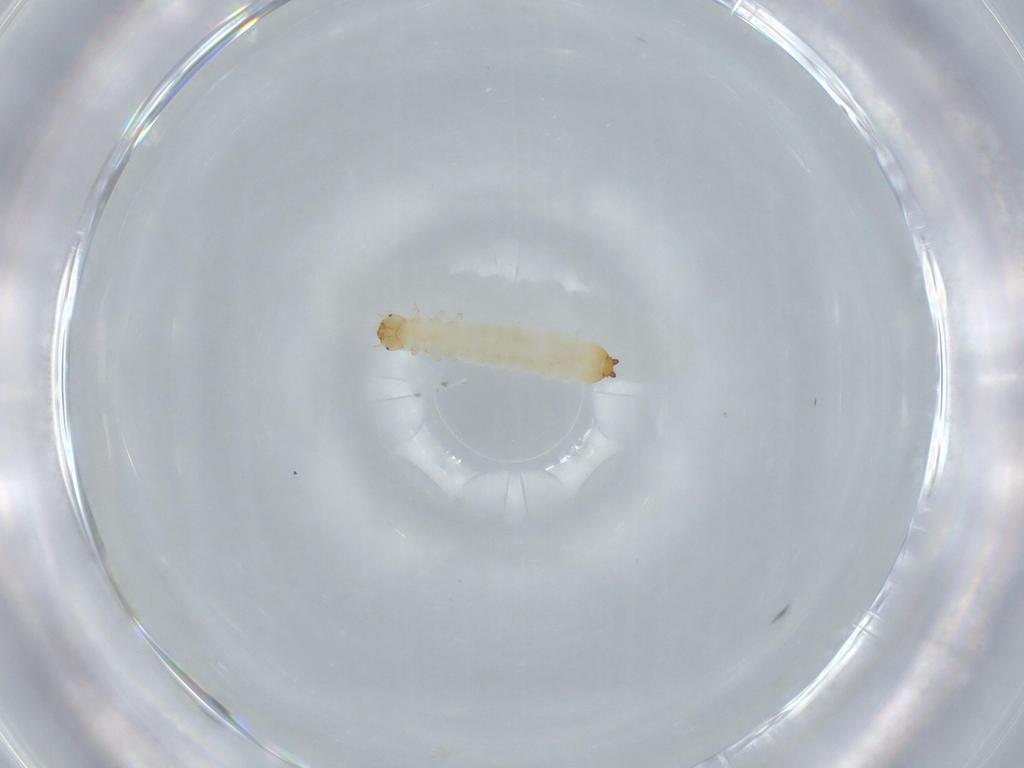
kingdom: Animalia
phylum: Arthropoda
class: Insecta
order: Coleoptera
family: Laemophloeidae
